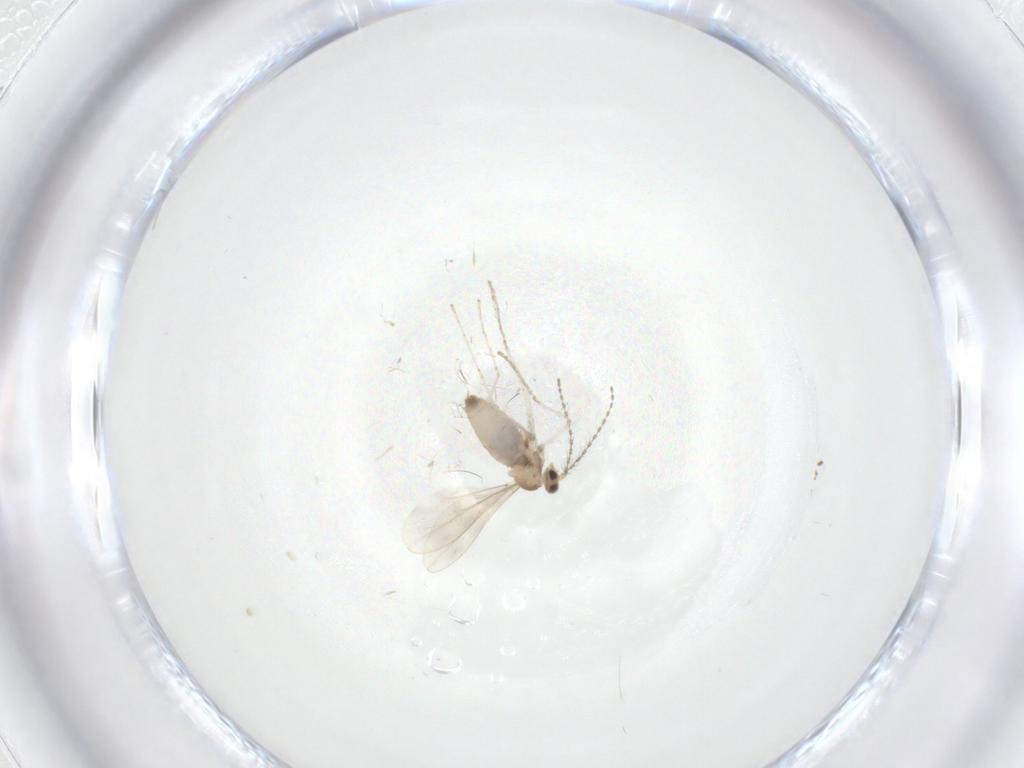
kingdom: Animalia
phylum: Arthropoda
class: Insecta
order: Diptera
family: Cecidomyiidae
